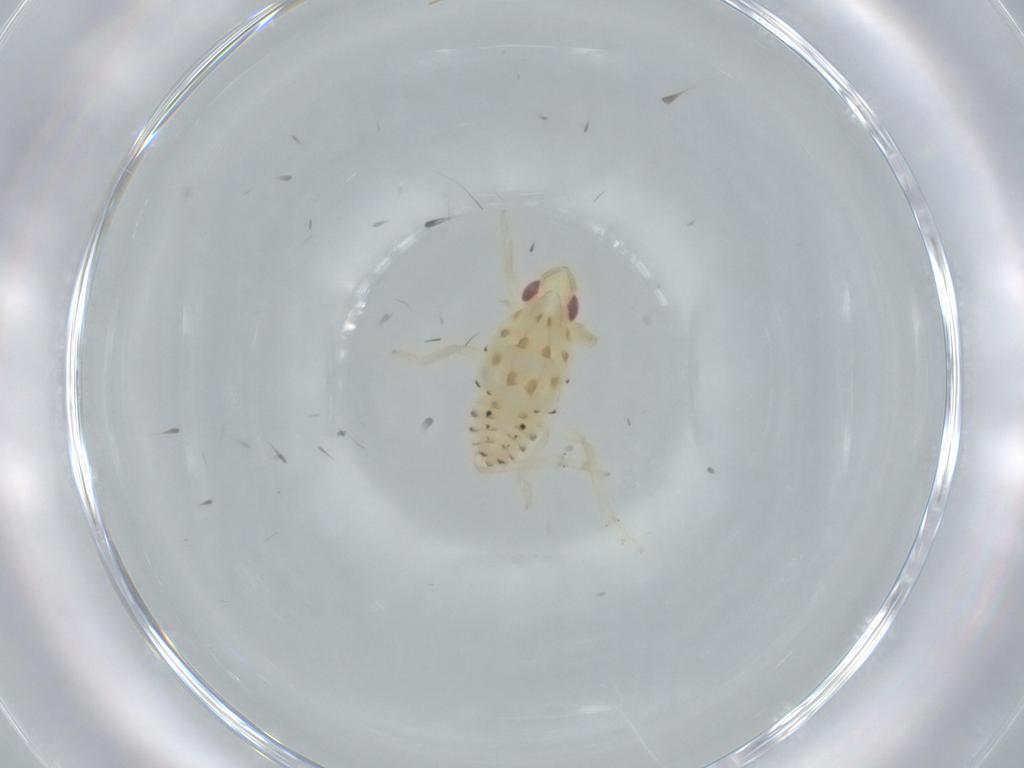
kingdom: Animalia
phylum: Arthropoda
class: Insecta
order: Hemiptera
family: Tropiduchidae
